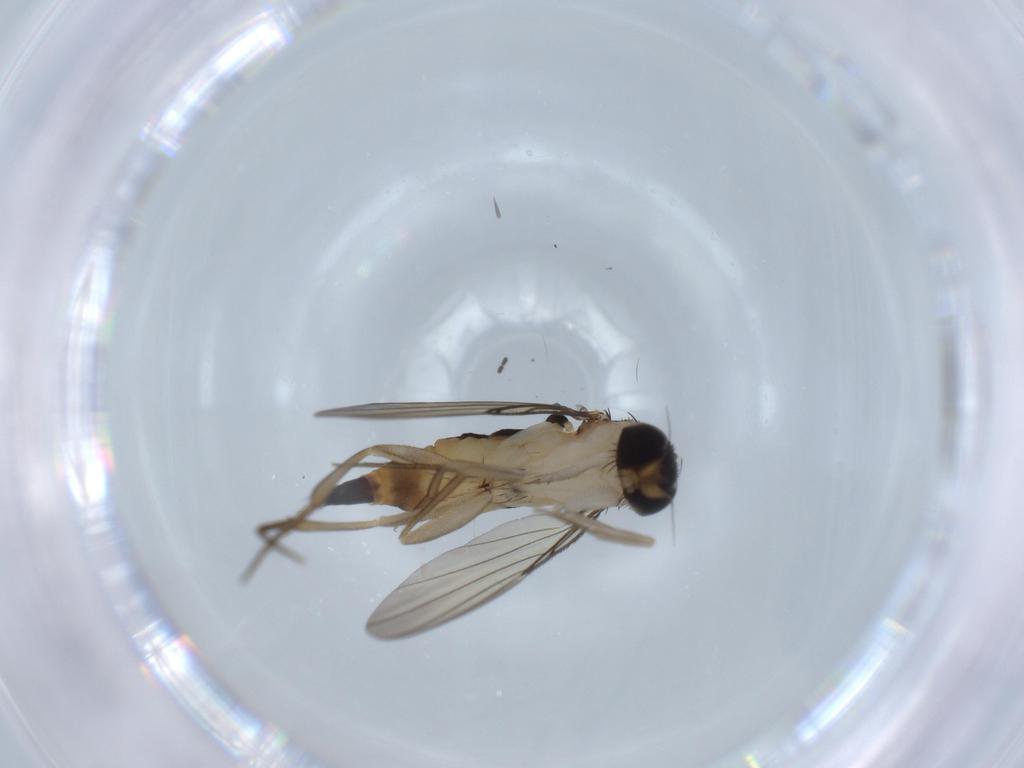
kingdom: Animalia
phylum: Arthropoda
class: Insecta
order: Diptera
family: Phoridae
